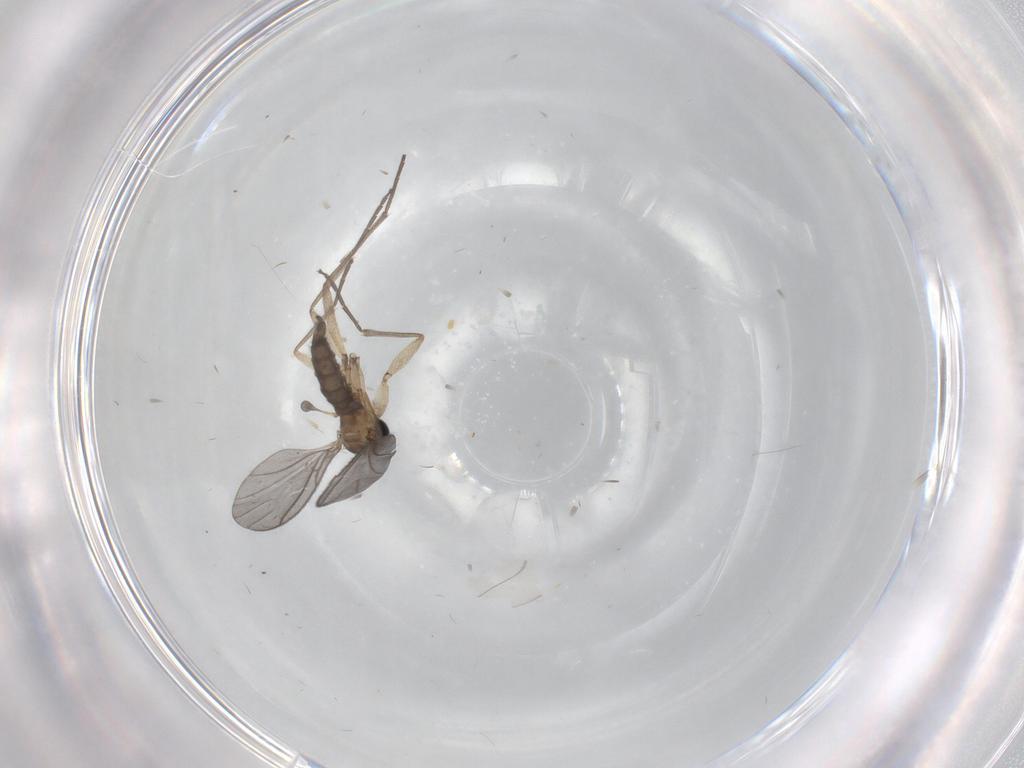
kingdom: Animalia
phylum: Arthropoda
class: Insecta
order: Diptera
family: Sciaridae
